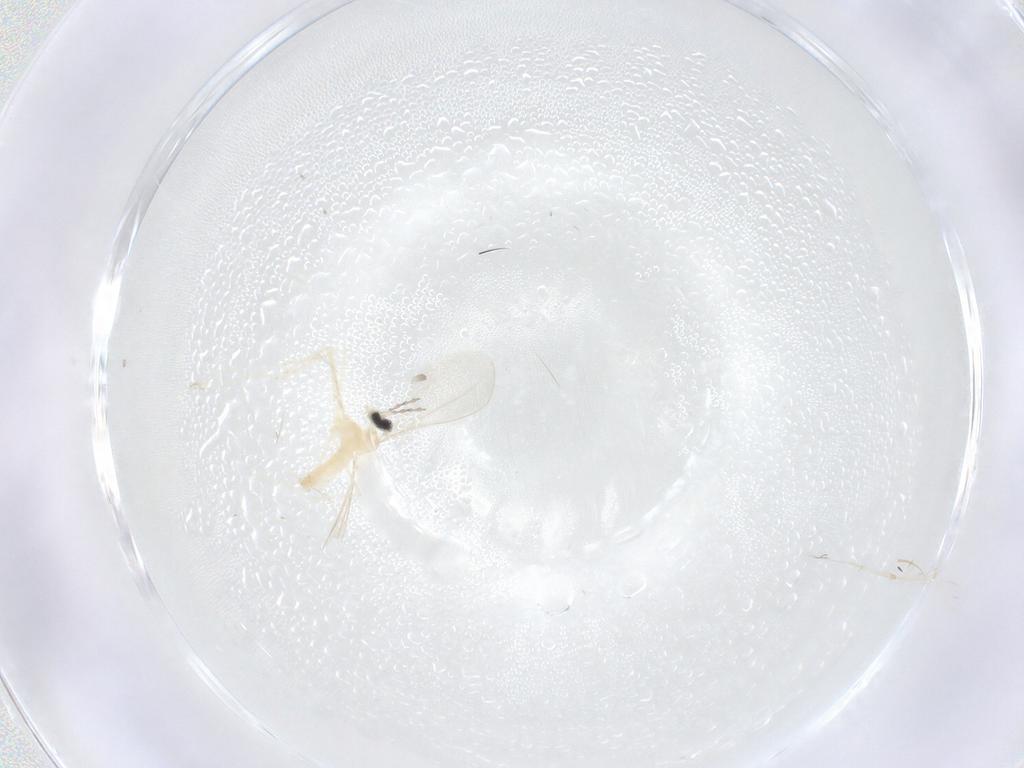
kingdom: Animalia
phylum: Arthropoda
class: Insecta
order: Diptera
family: Cecidomyiidae
